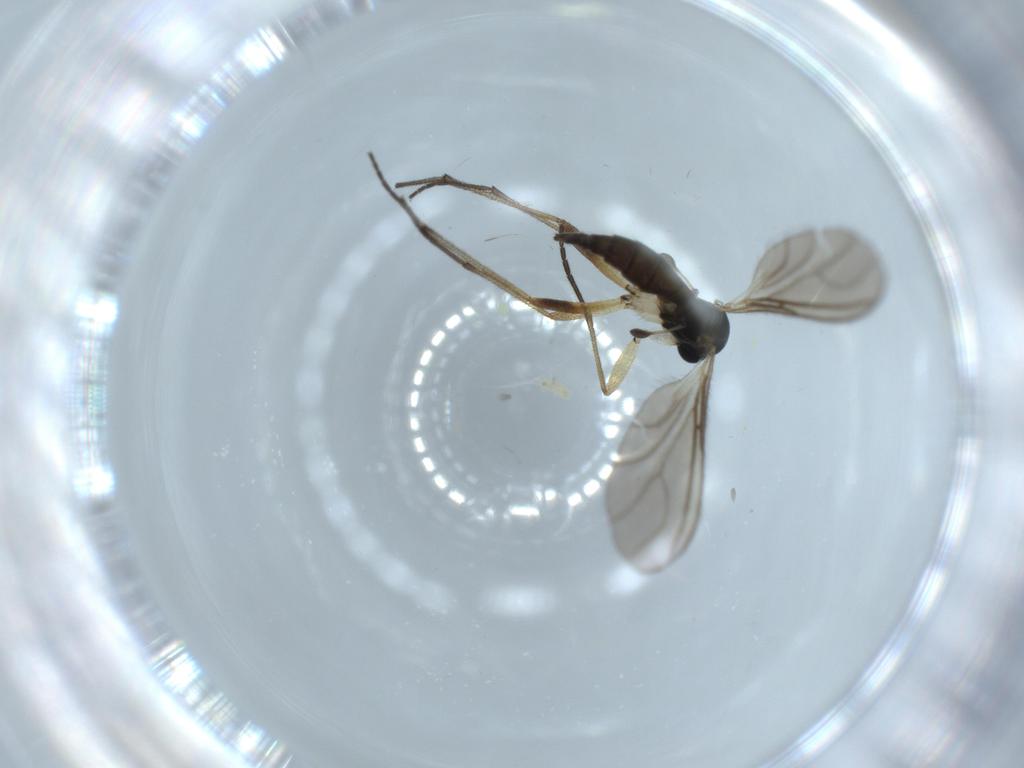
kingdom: Animalia
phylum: Arthropoda
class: Insecta
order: Diptera
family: Sciaridae
